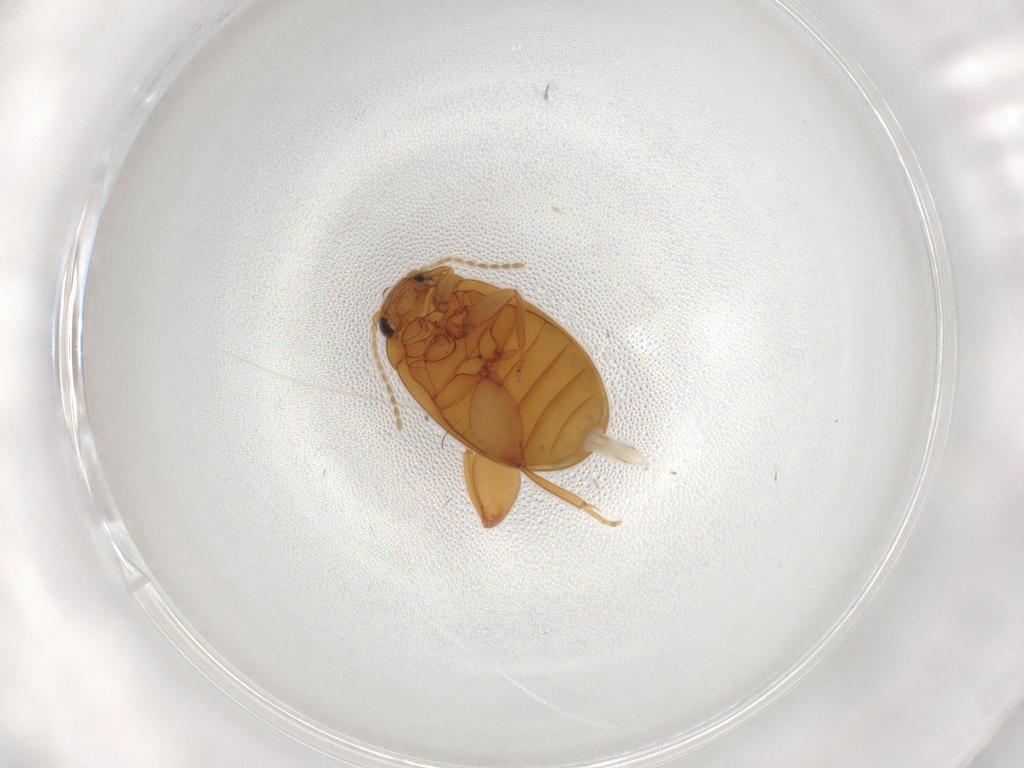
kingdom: Animalia
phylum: Arthropoda
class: Insecta
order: Coleoptera
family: Scirtidae
